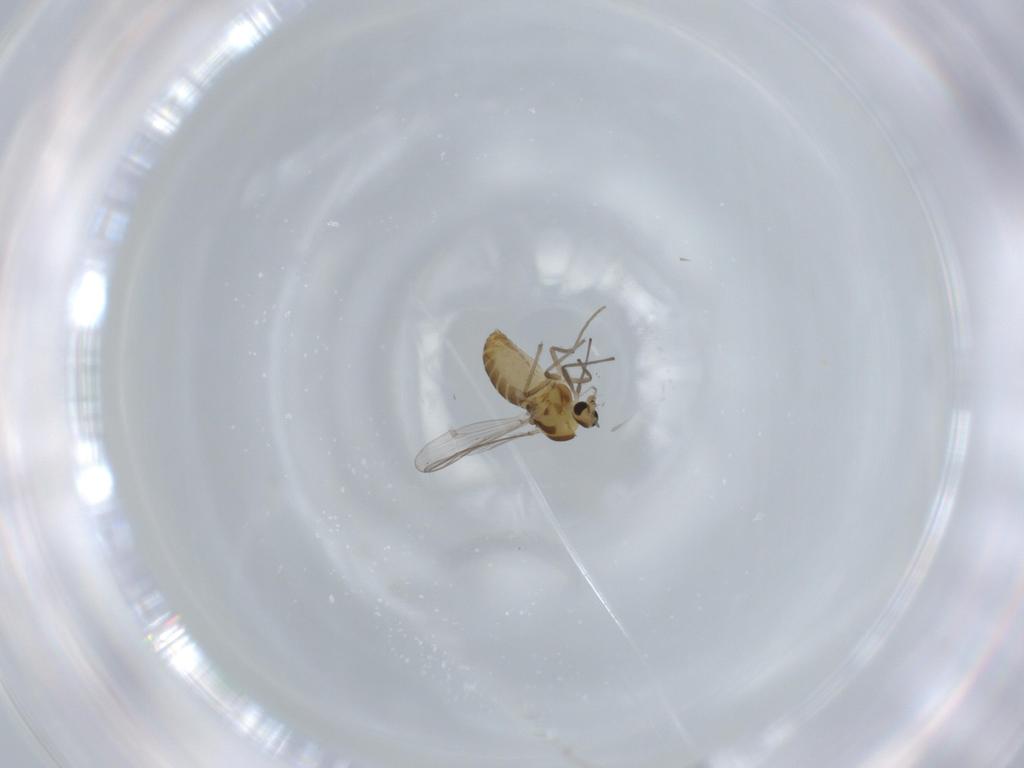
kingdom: Animalia
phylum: Arthropoda
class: Insecta
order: Diptera
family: Chironomidae
